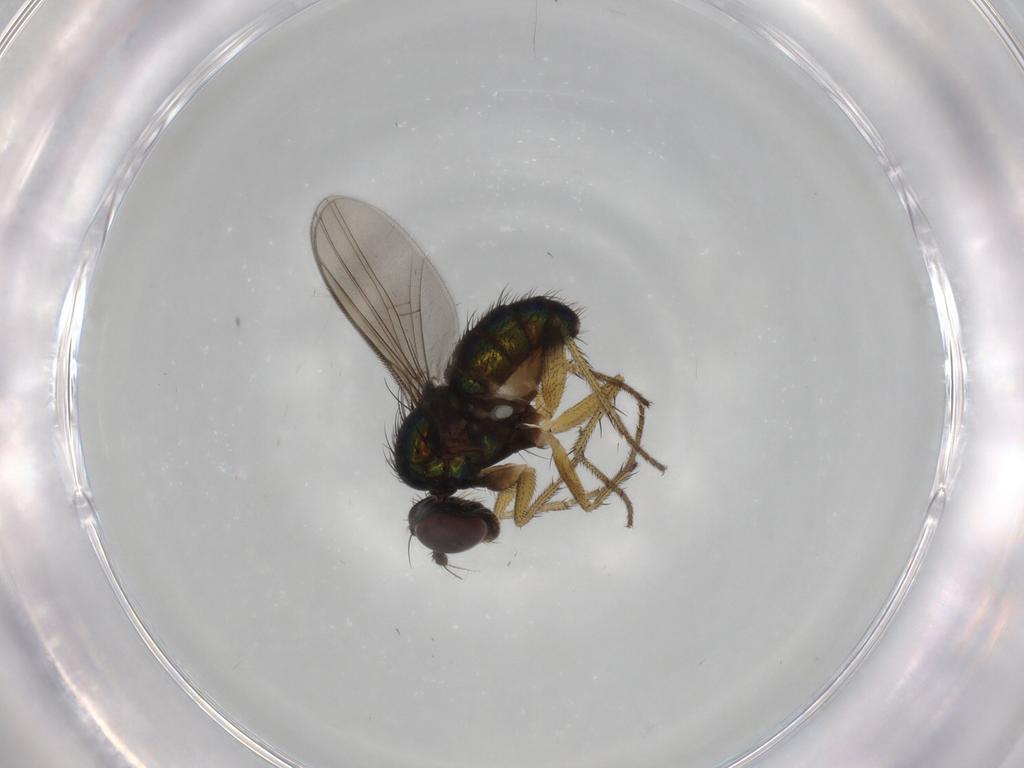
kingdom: Animalia
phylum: Arthropoda
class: Insecta
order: Diptera
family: Dolichopodidae
